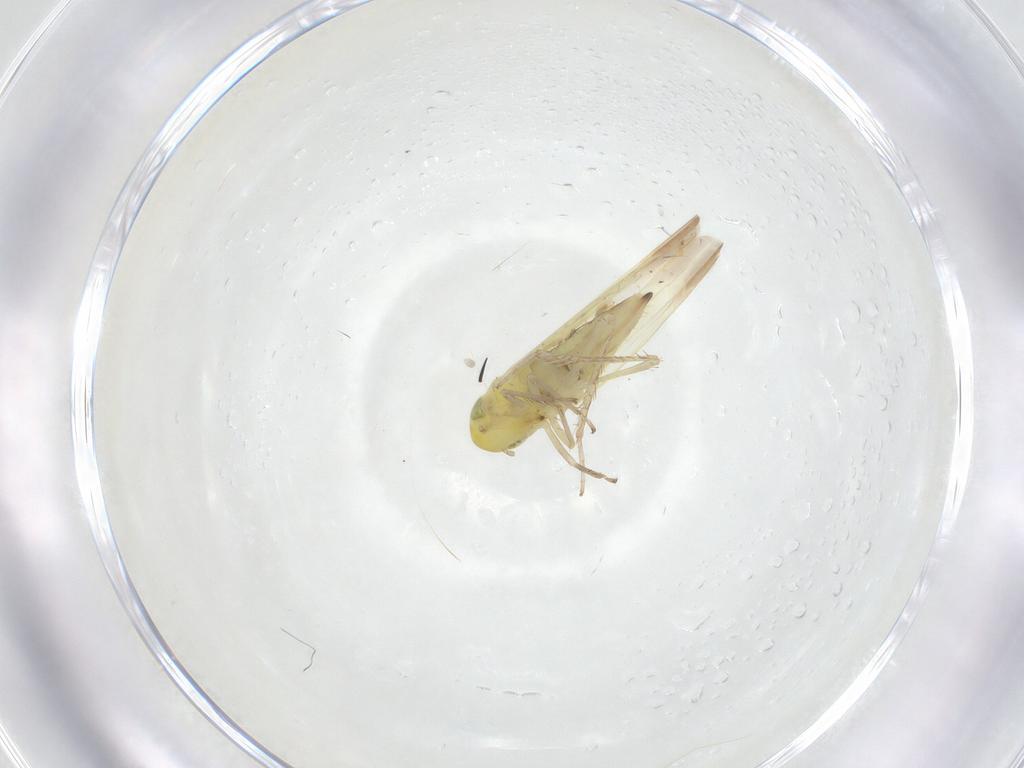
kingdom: Animalia
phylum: Arthropoda
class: Insecta
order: Hemiptera
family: Cicadellidae
